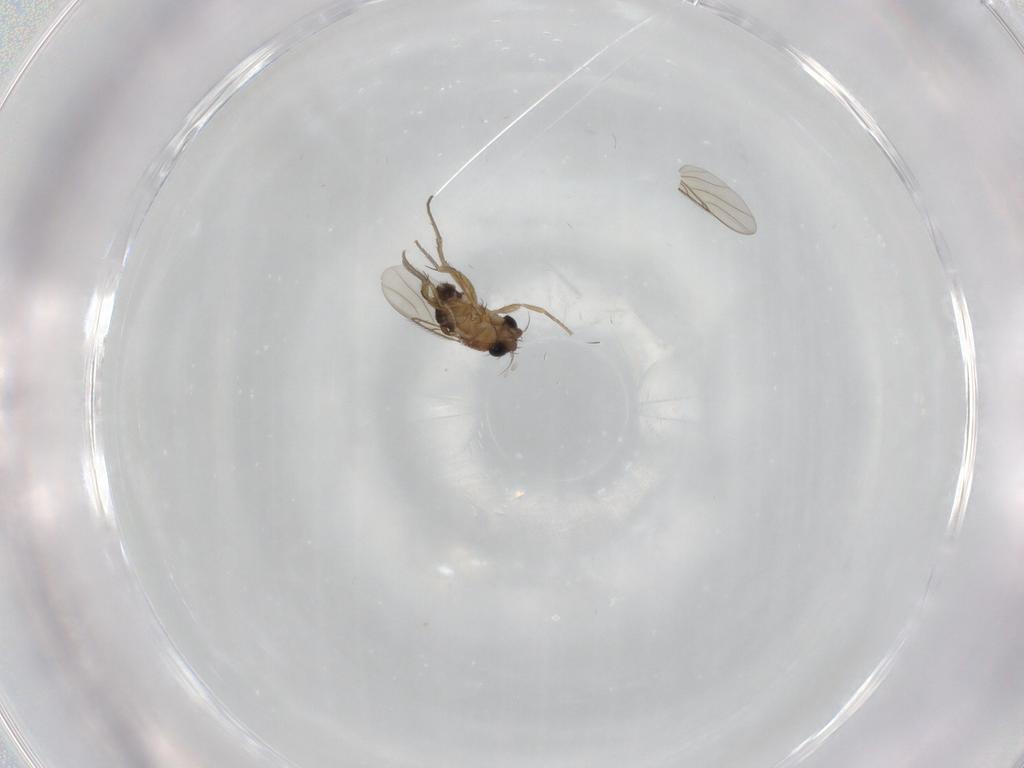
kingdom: Animalia
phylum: Arthropoda
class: Insecta
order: Diptera
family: Phoridae
